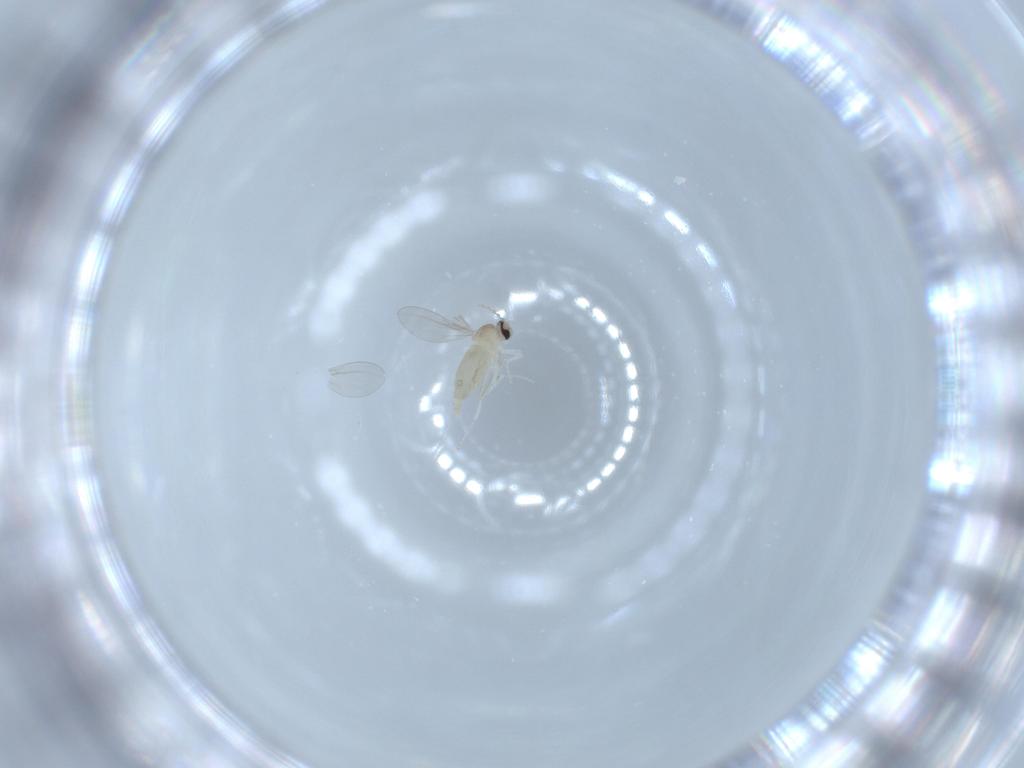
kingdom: Animalia
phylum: Arthropoda
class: Insecta
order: Diptera
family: Cecidomyiidae
